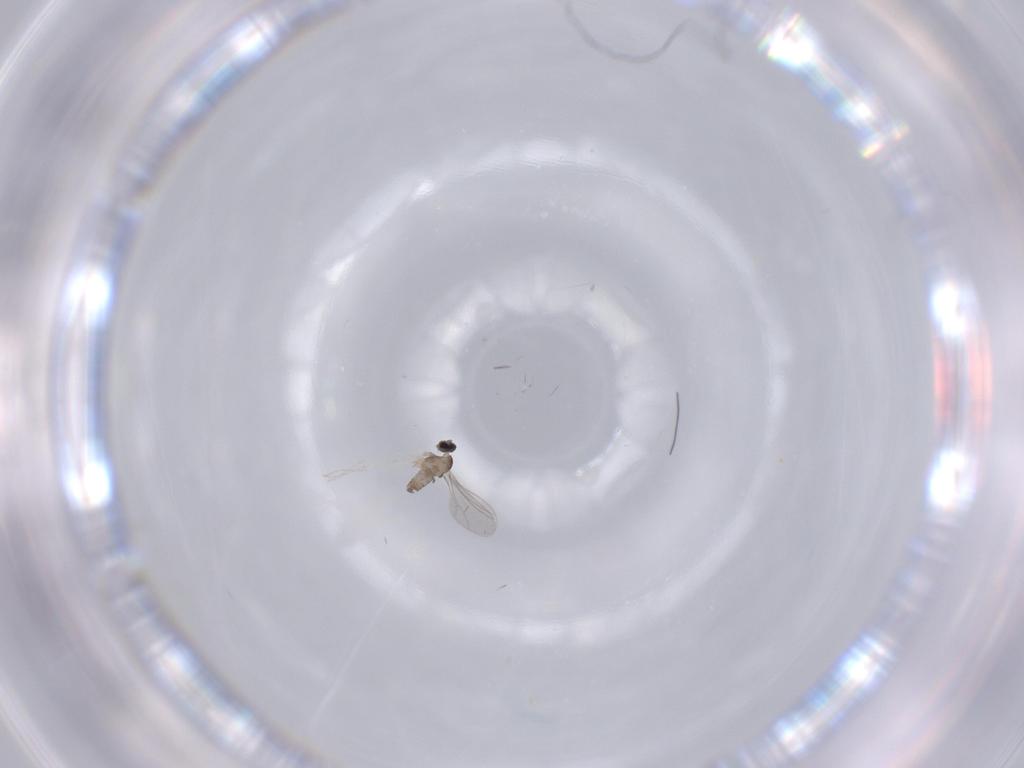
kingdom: Animalia
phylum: Arthropoda
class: Insecta
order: Diptera
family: Cecidomyiidae
